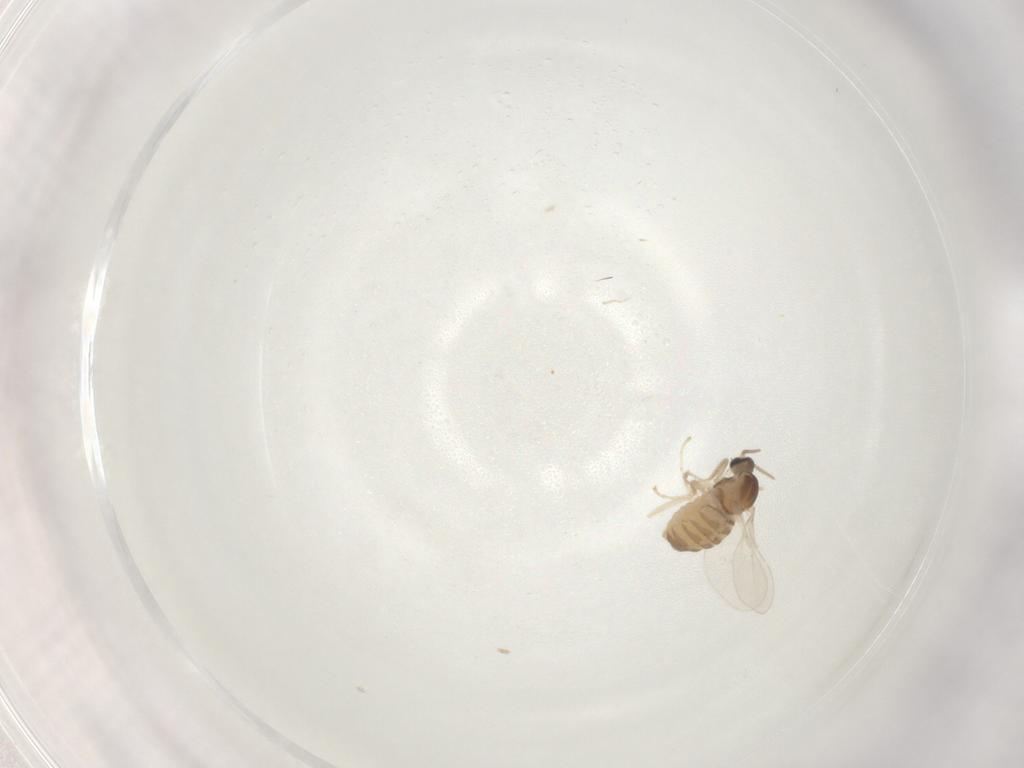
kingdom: Animalia
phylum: Arthropoda
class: Insecta
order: Diptera
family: Cecidomyiidae
